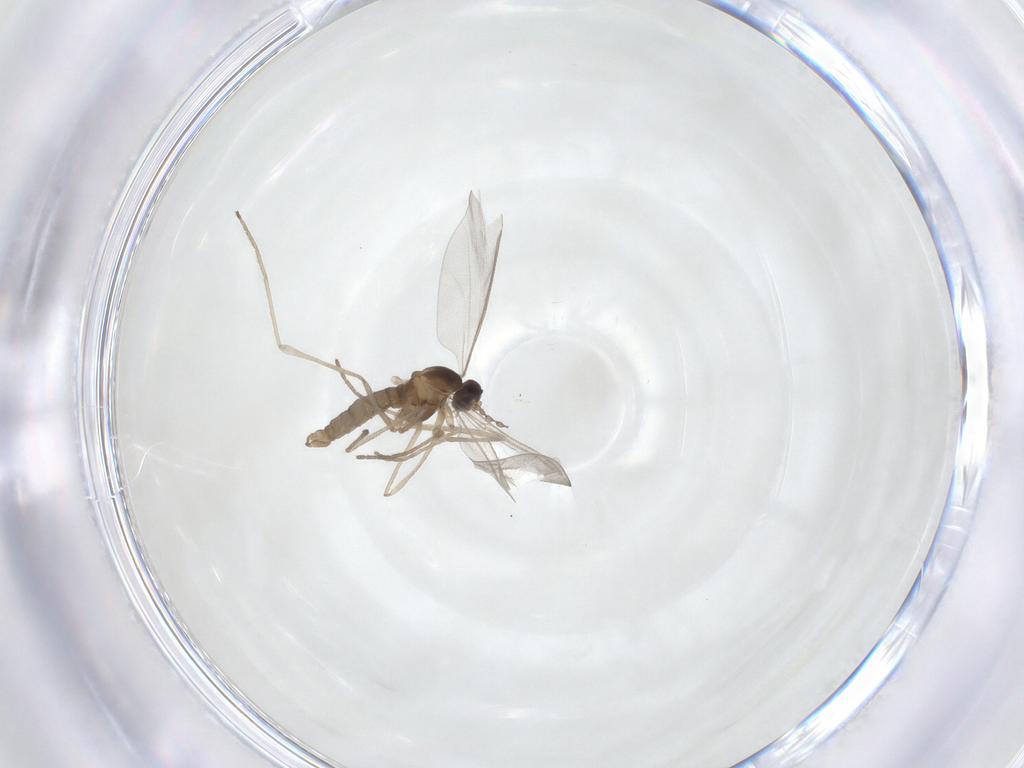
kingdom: Animalia
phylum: Arthropoda
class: Insecta
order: Diptera
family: Cecidomyiidae
